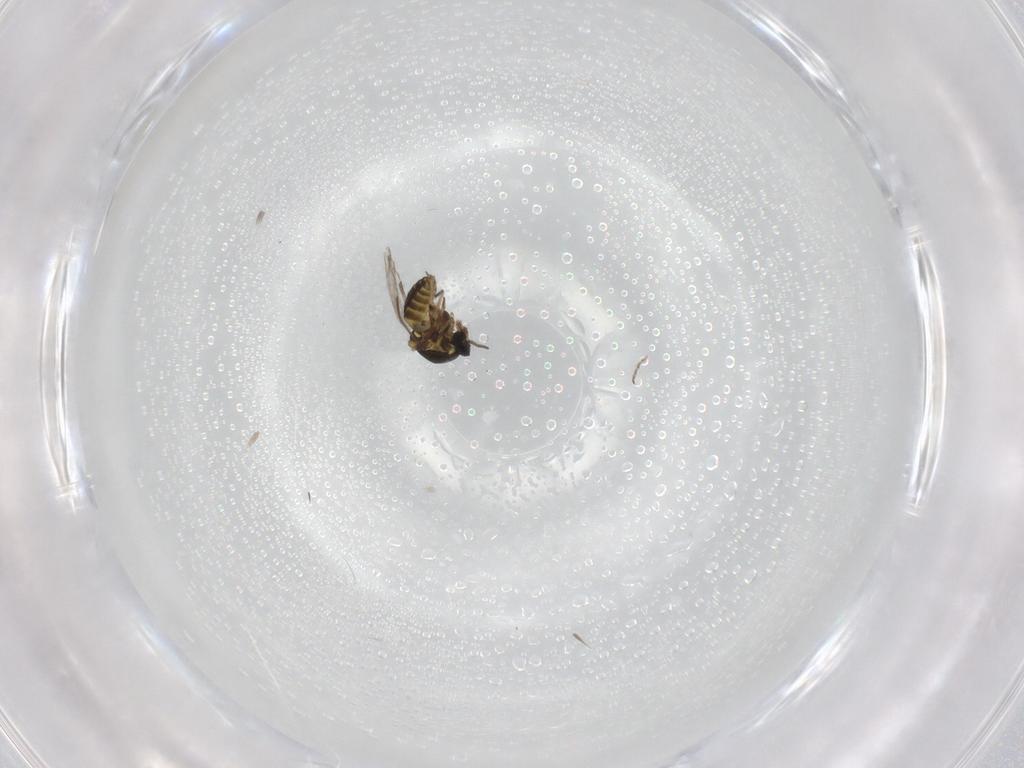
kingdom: Animalia
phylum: Arthropoda
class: Insecta
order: Diptera
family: Ceratopogonidae
